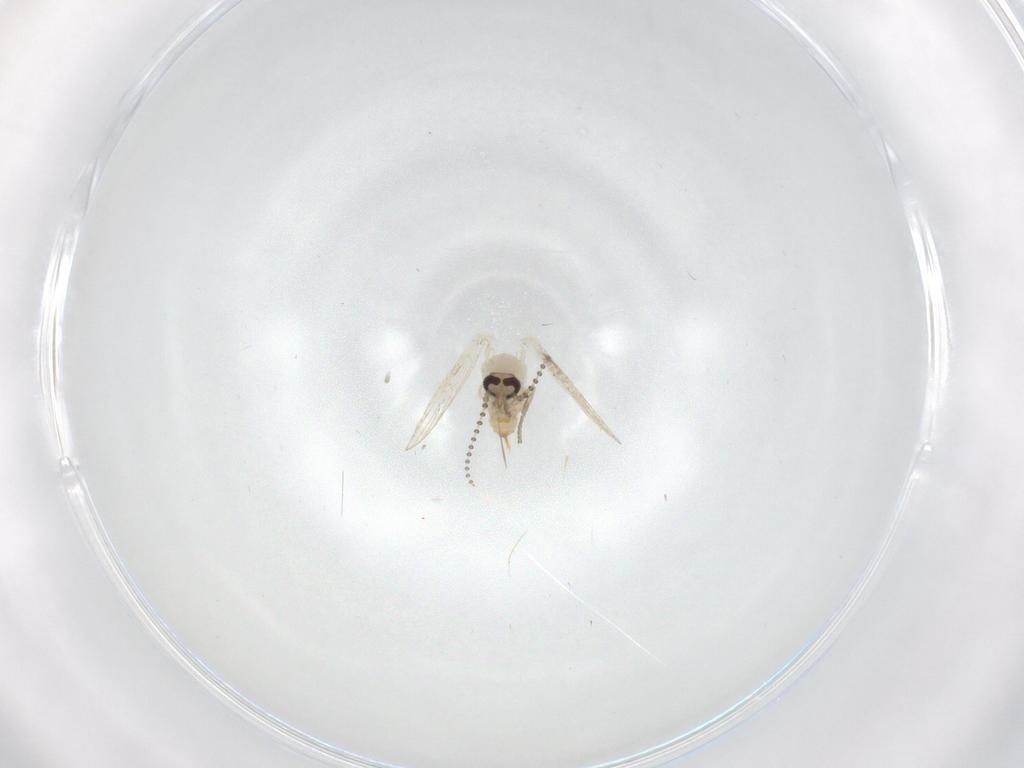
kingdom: Animalia
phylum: Arthropoda
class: Insecta
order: Diptera
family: Psychodidae
